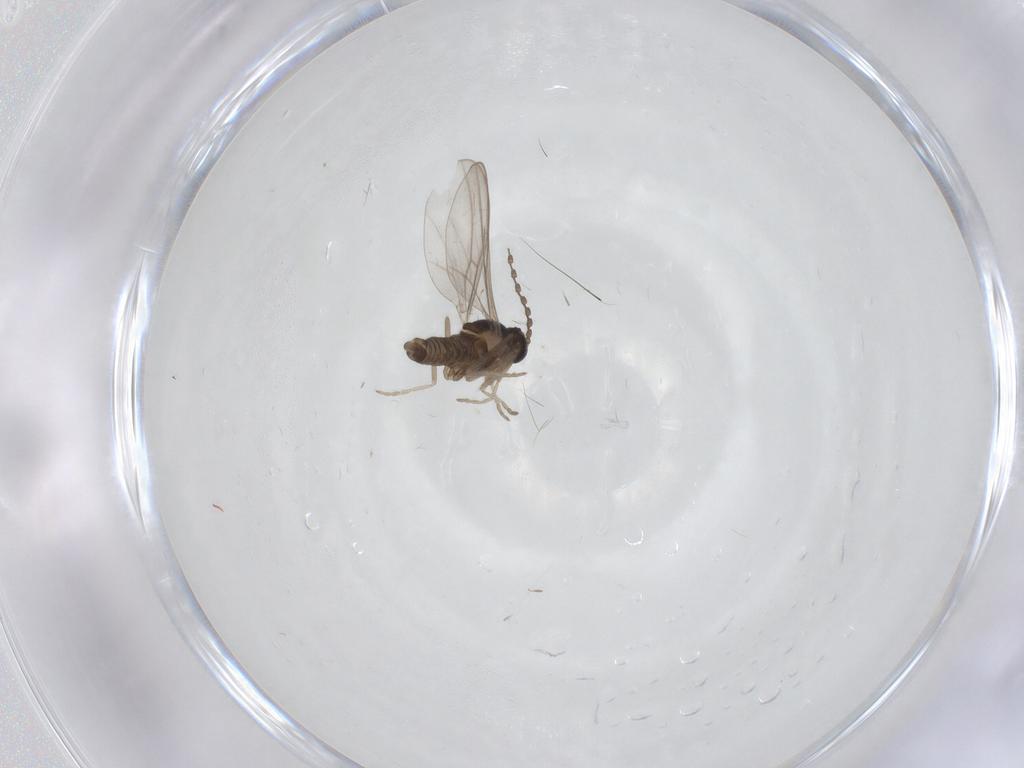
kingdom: Animalia
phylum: Arthropoda
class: Insecta
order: Diptera
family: Cecidomyiidae
